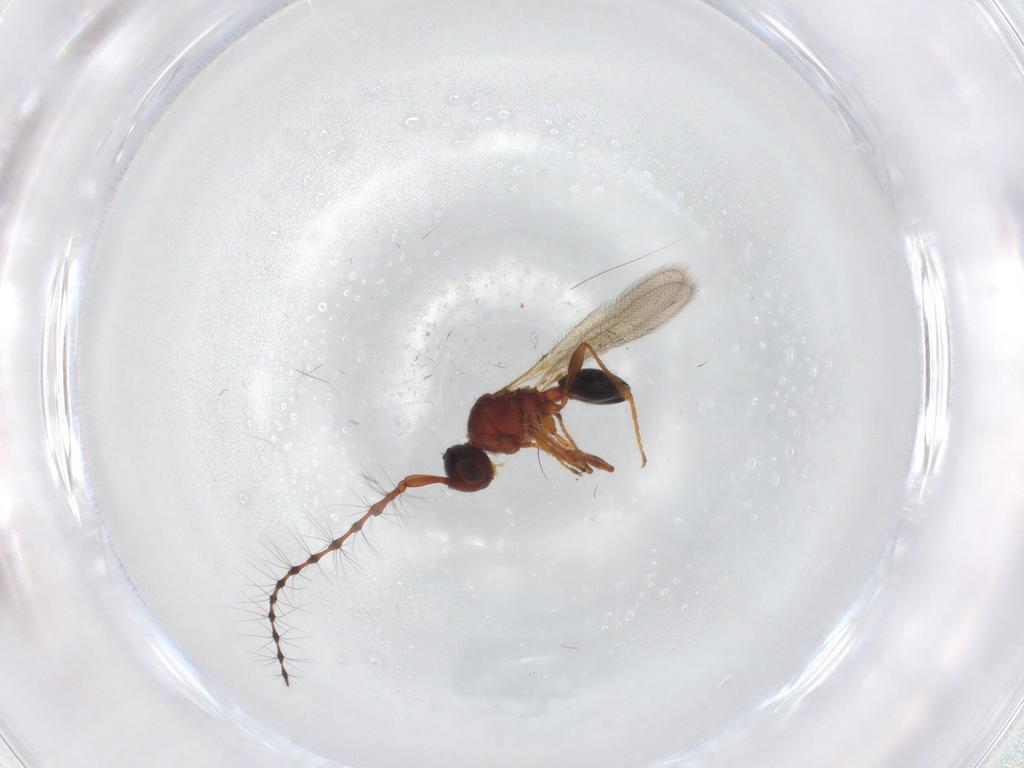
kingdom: Animalia
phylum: Arthropoda
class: Insecta
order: Hymenoptera
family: Diapriidae
